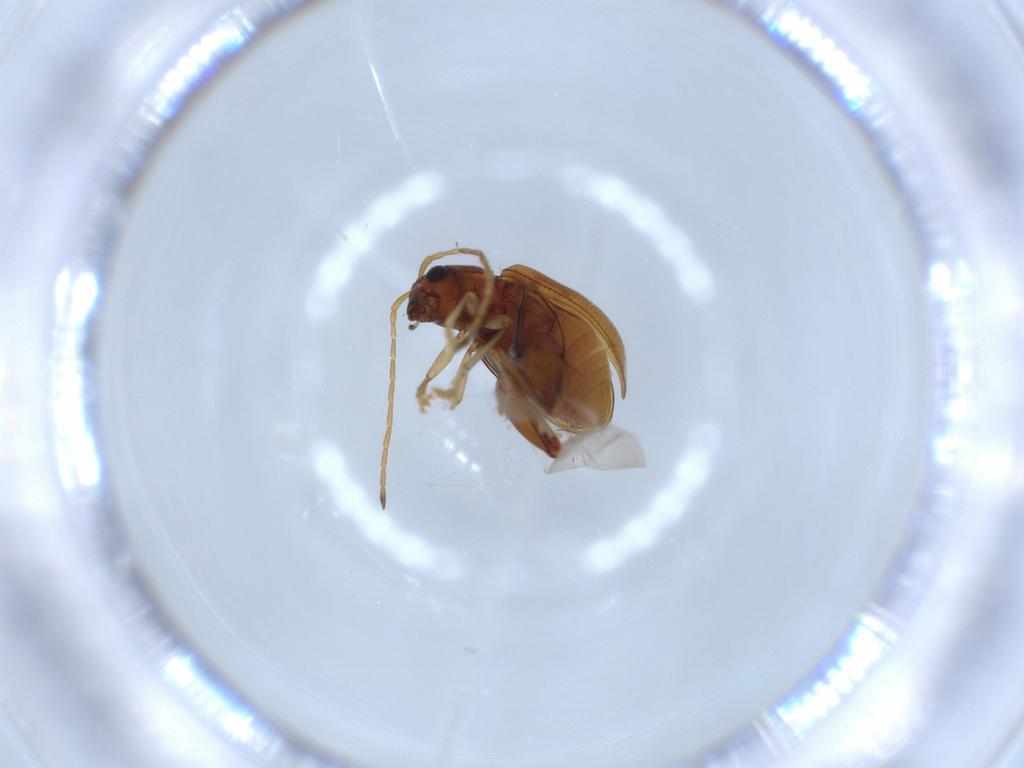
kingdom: Animalia
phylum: Arthropoda
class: Insecta
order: Coleoptera
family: Chrysomelidae
